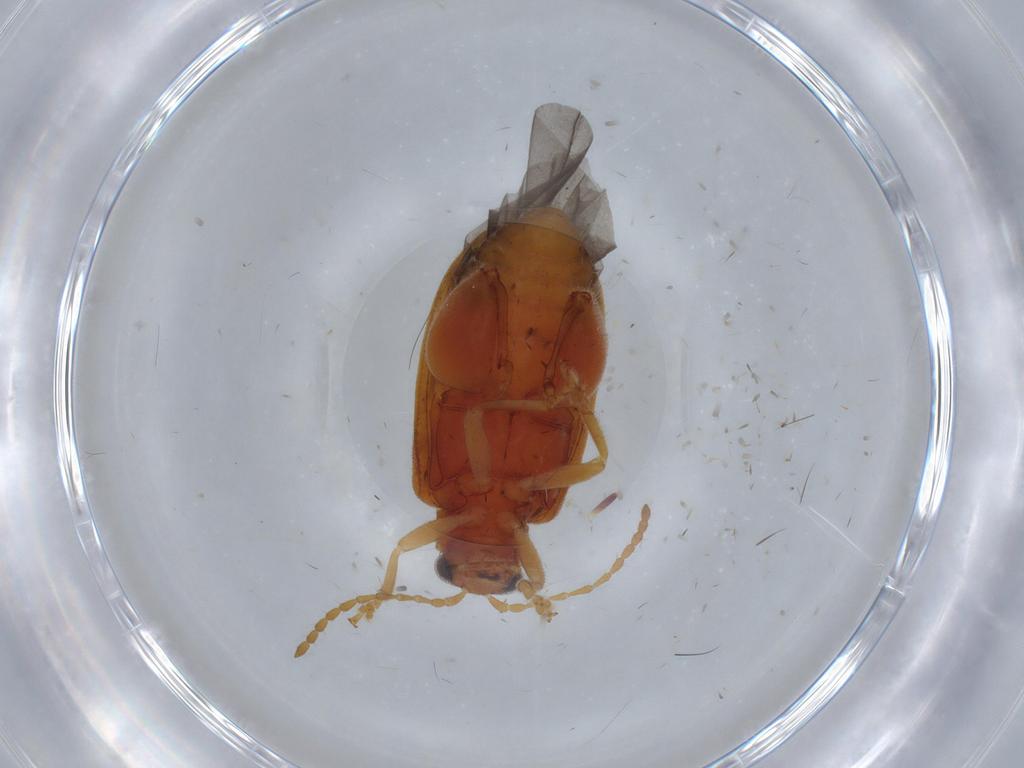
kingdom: Animalia
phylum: Arthropoda
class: Insecta
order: Coleoptera
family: Chrysomelidae
